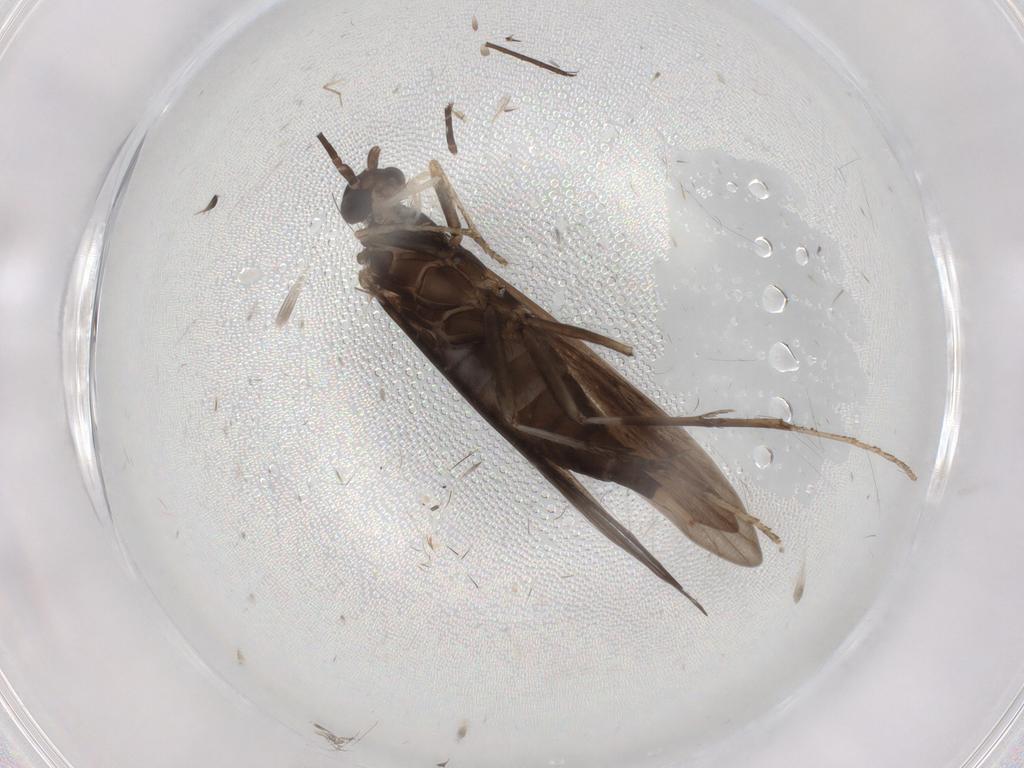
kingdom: Animalia
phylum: Arthropoda
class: Insecta
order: Trichoptera
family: Xiphocentronidae
